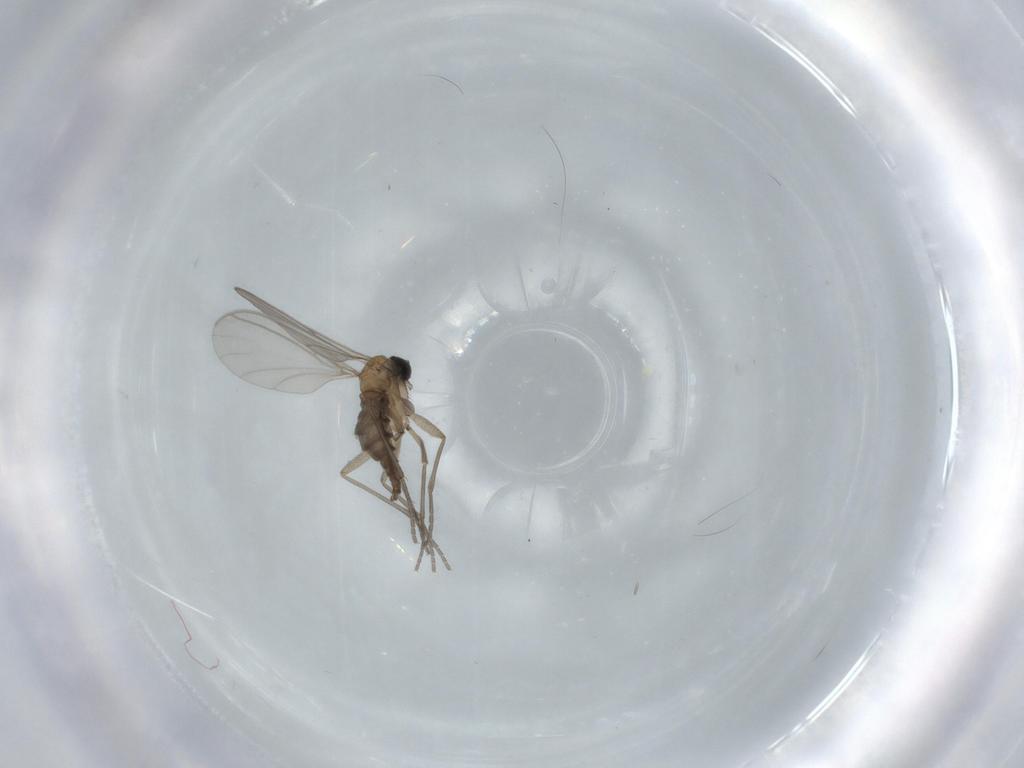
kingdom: Animalia
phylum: Arthropoda
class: Insecta
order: Diptera
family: Sciaridae
